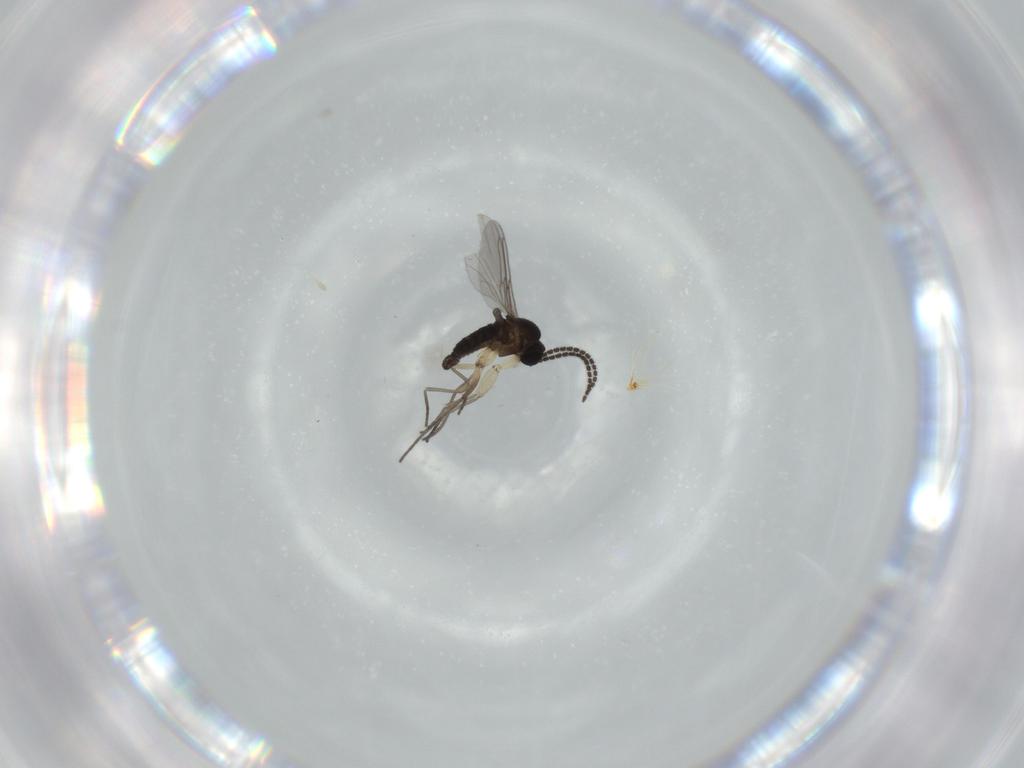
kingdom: Animalia
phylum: Arthropoda
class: Insecta
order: Diptera
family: Sciaridae
